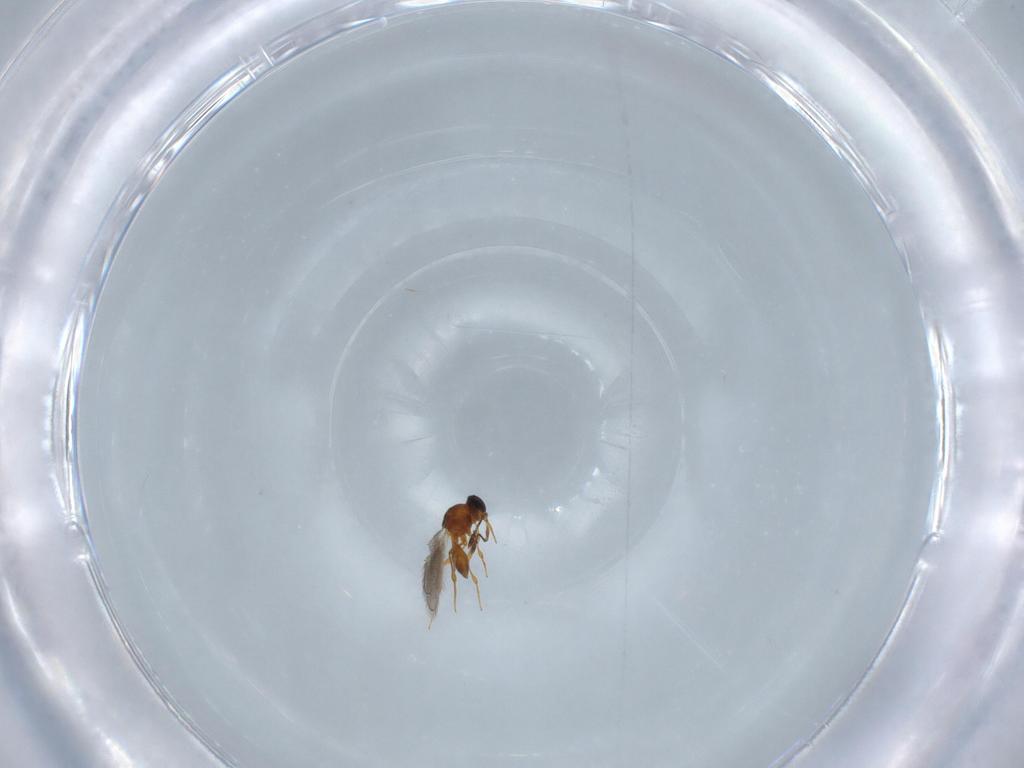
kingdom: Animalia
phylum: Arthropoda
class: Insecta
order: Hymenoptera
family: Platygastridae
